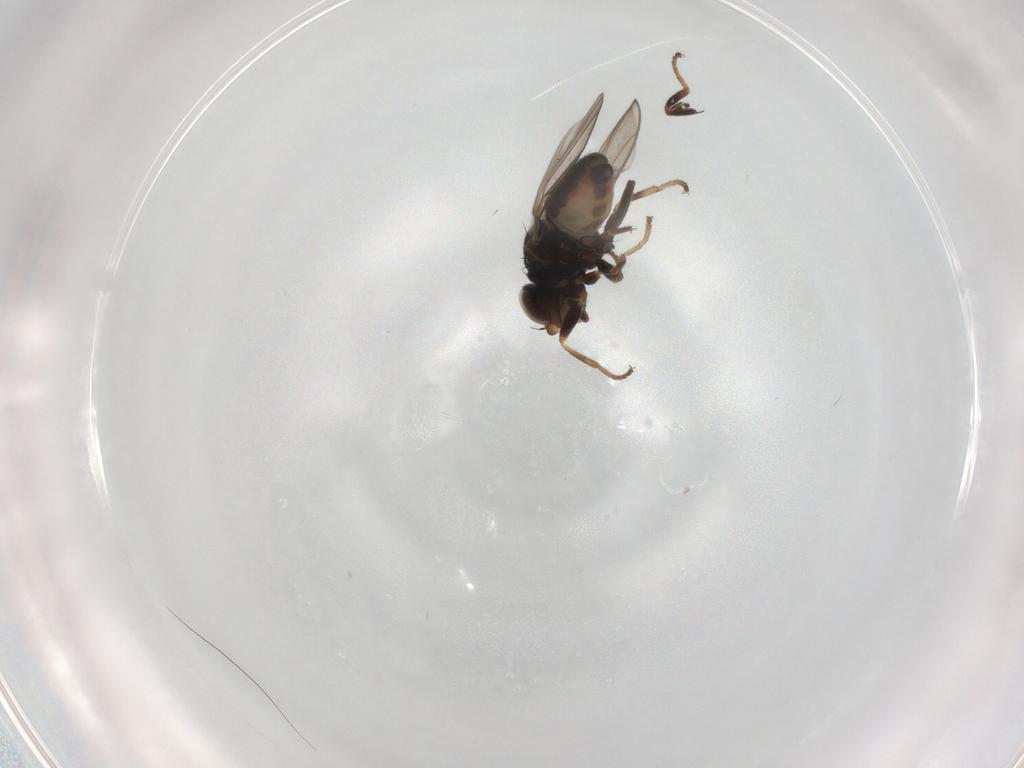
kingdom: Animalia
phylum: Arthropoda
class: Insecta
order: Diptera
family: Chloropidae
